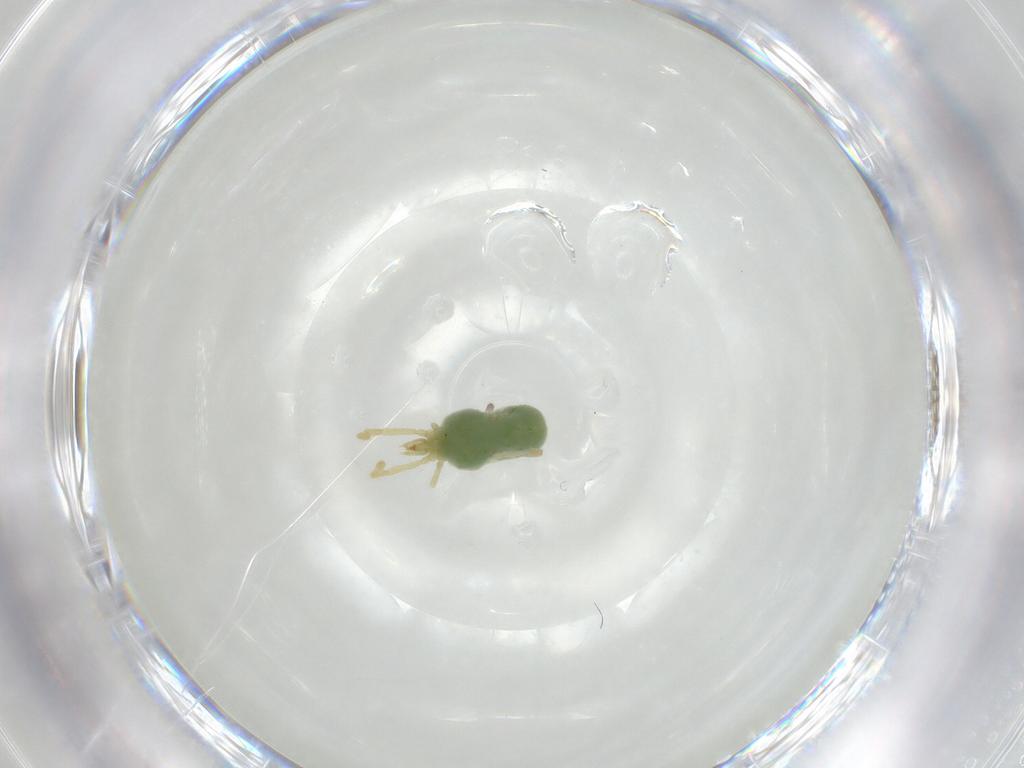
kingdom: Animalia
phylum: Arthropoda
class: Arachnida
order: Trombidiformes
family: Erythraeidae
